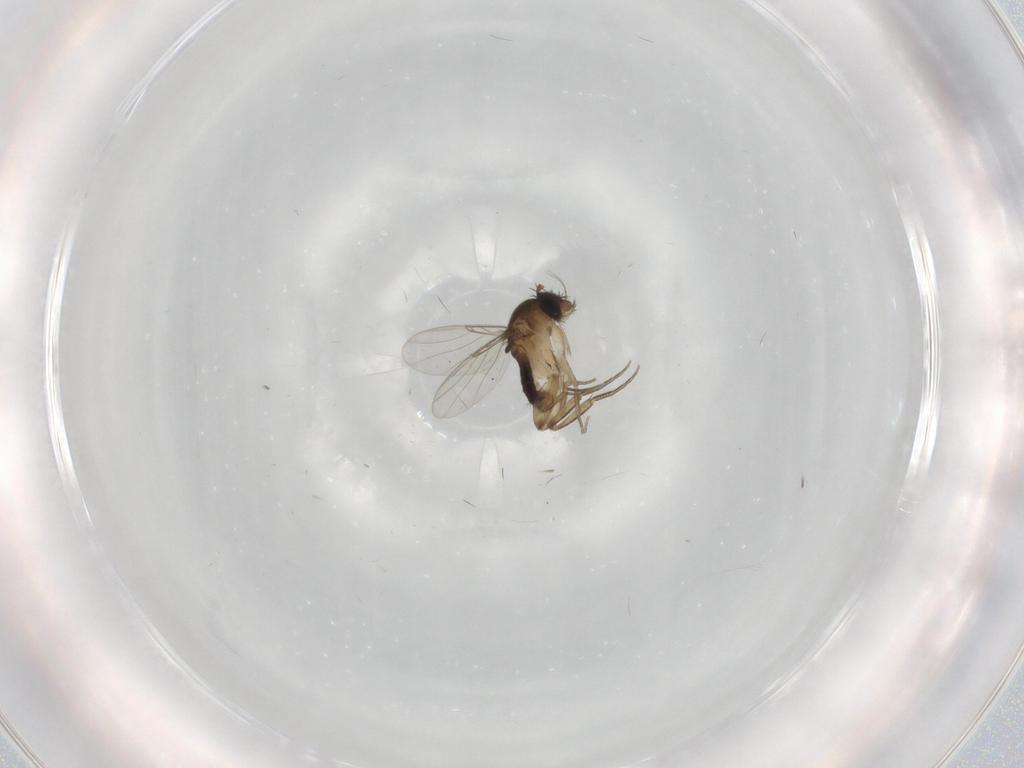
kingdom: Animalia
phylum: Arthropoda
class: Insecta
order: Diptera
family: Phoridae
